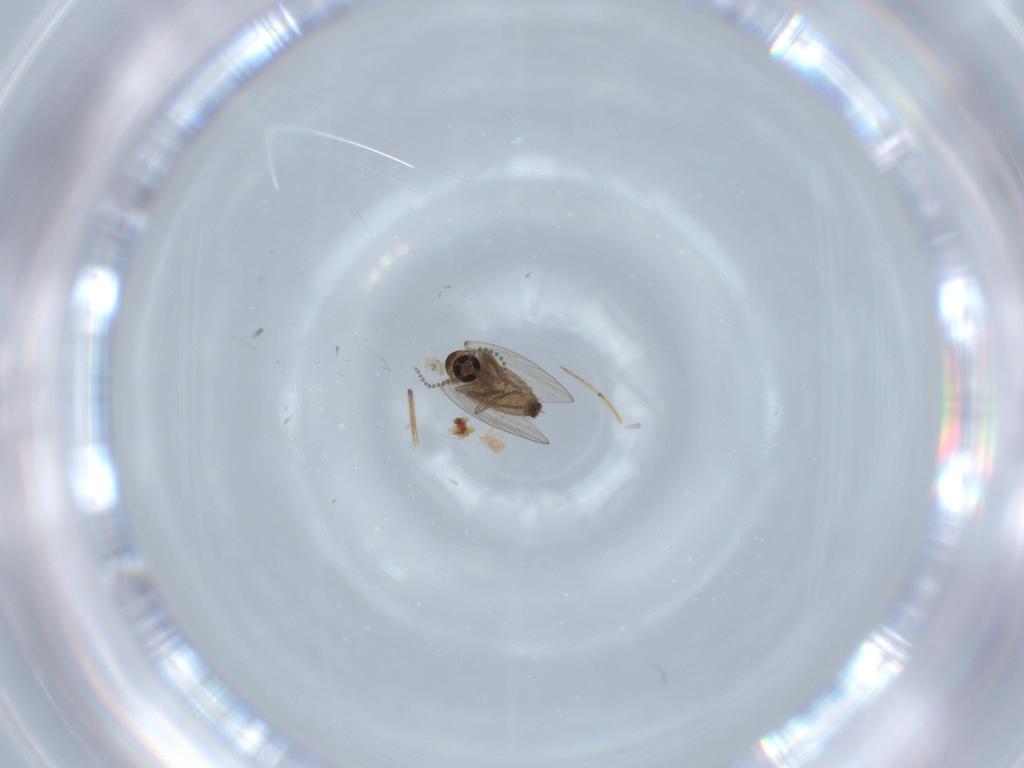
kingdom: Animalia
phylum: Arthropoda
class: Insecta
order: Diptera
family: Psychodidae
